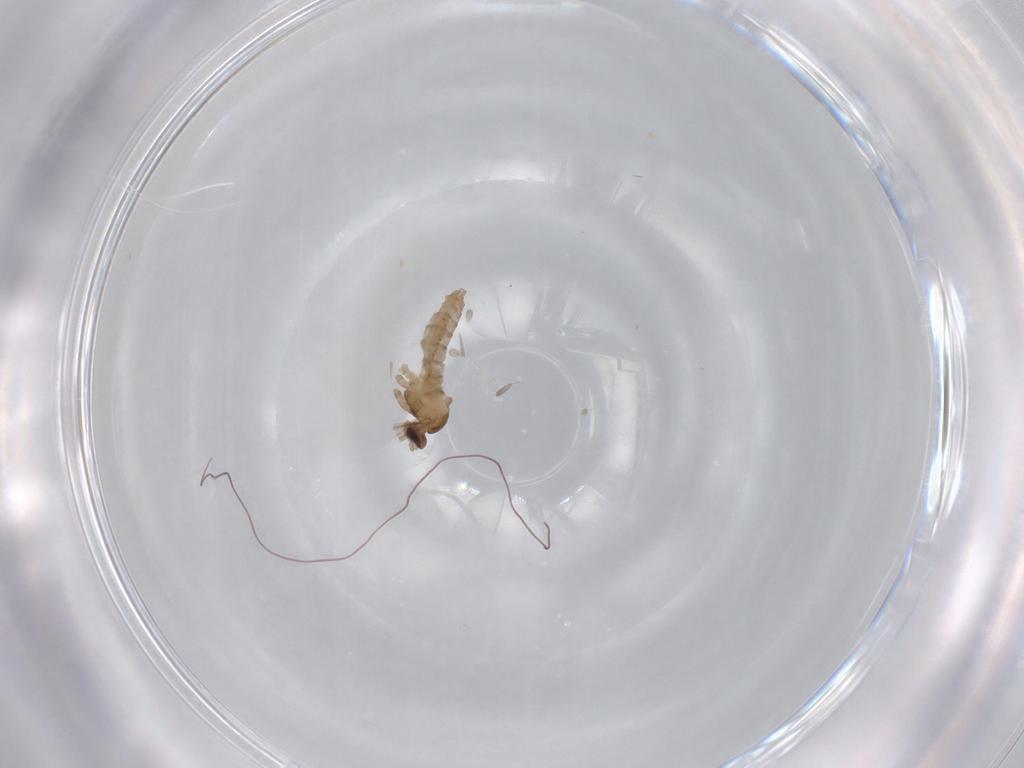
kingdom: Animalia
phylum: Arthropoda
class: Insecta
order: Diptera
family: Cecidomyiidae
